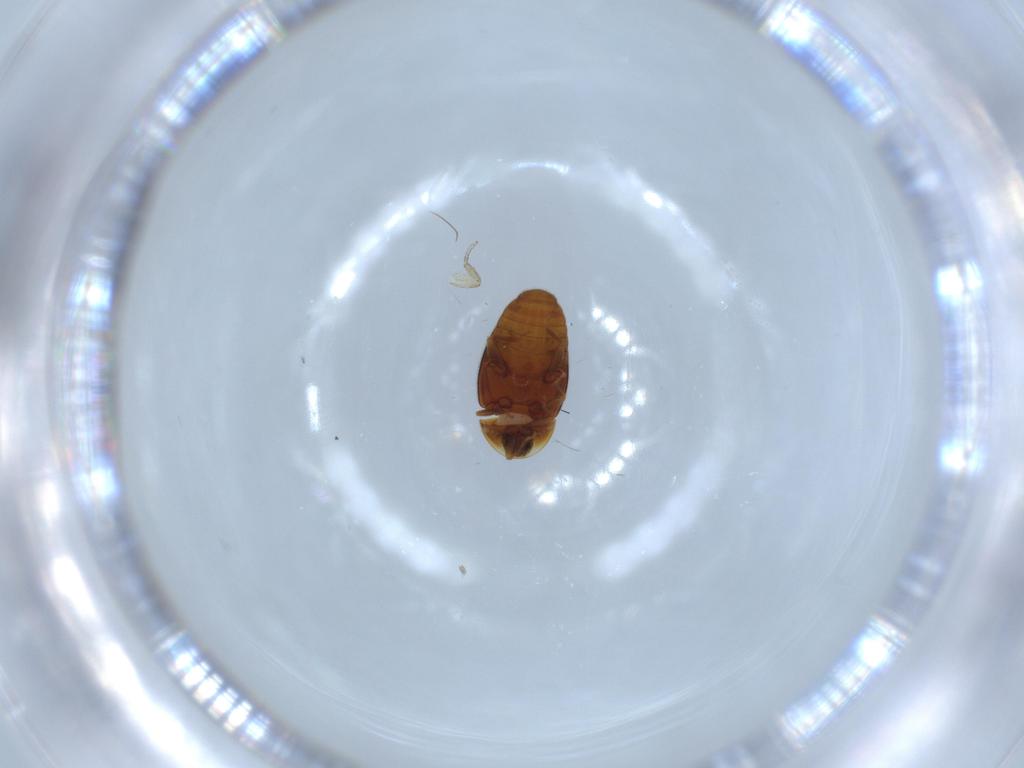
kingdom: Animalia
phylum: Arthropoda
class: Insecta
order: Coleoptera
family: Corylophidae
